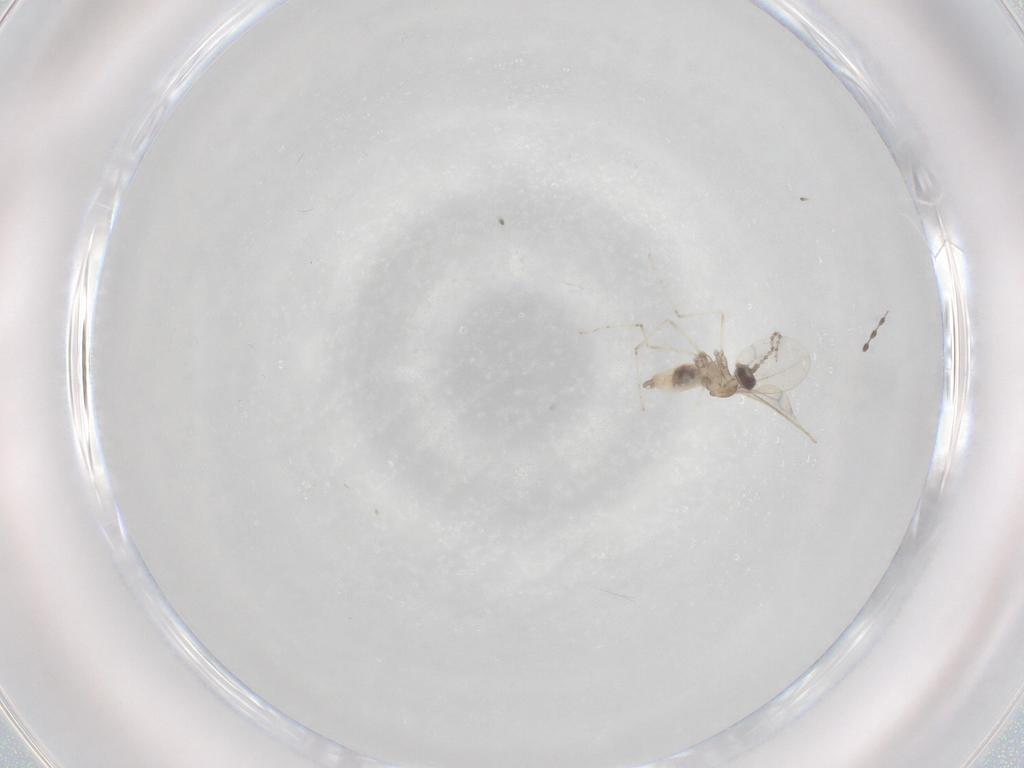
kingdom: Animalia
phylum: Arthropoda
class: Insecta
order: Diptera
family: Cecidomyiidae
